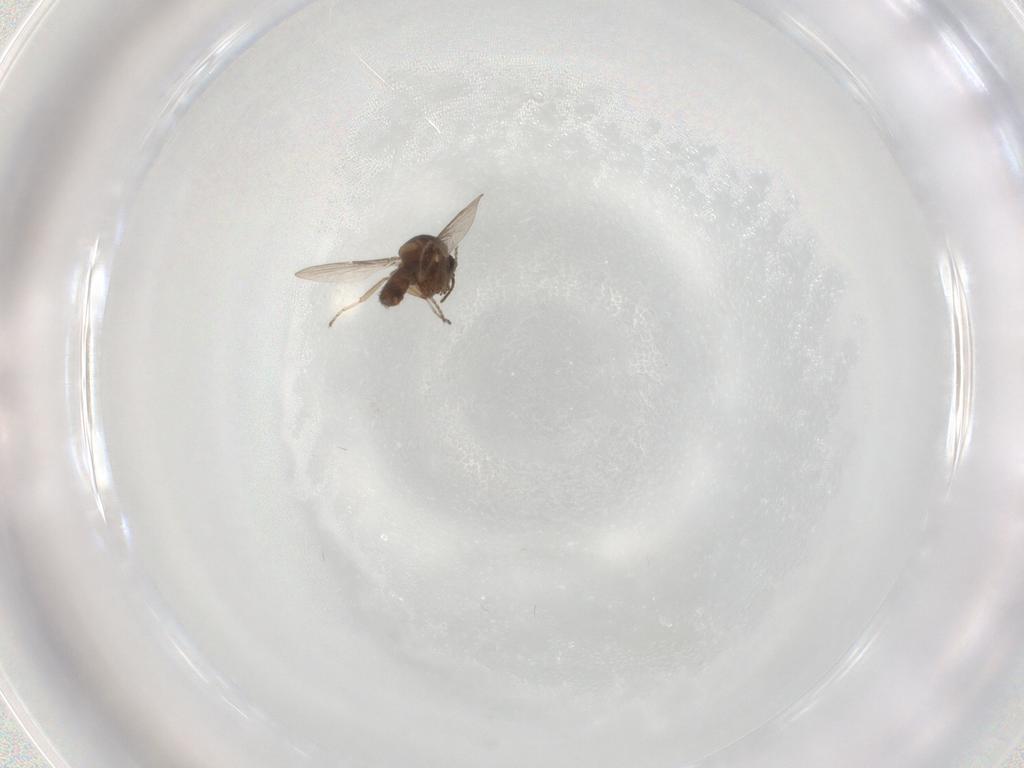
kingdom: Animalia
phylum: Arthropoda
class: Insecta
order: Diptera
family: Ceratopogonidae
